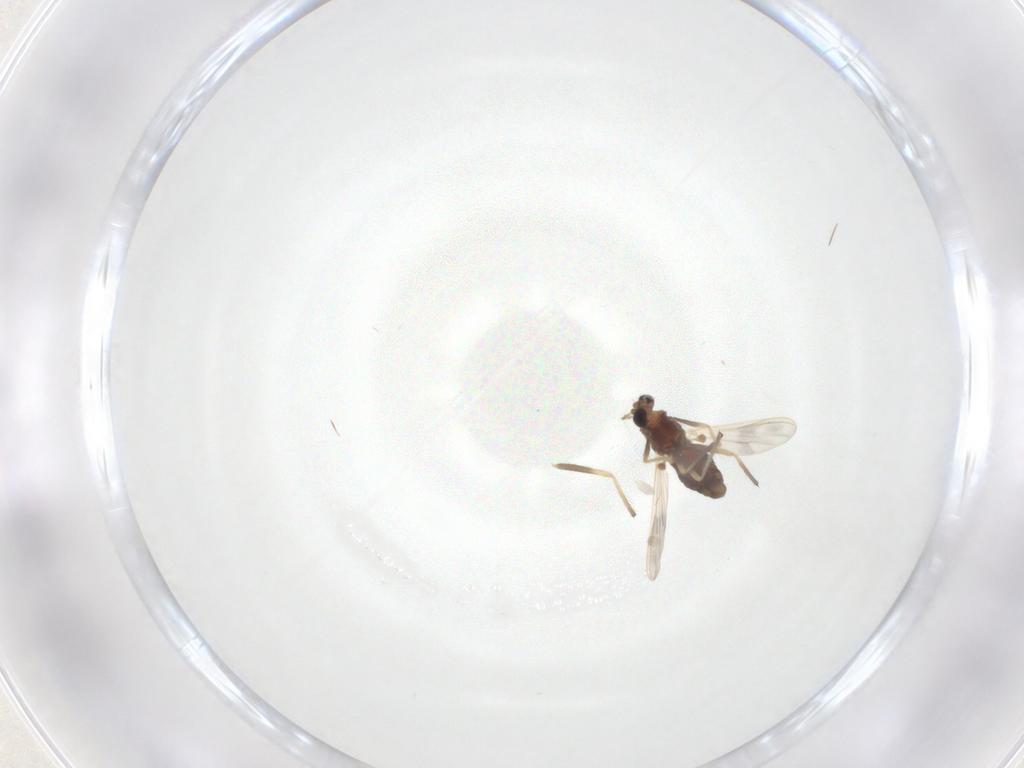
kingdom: Animalia
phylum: Arthropoda
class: Insecta
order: Diptera
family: Chironomidae
